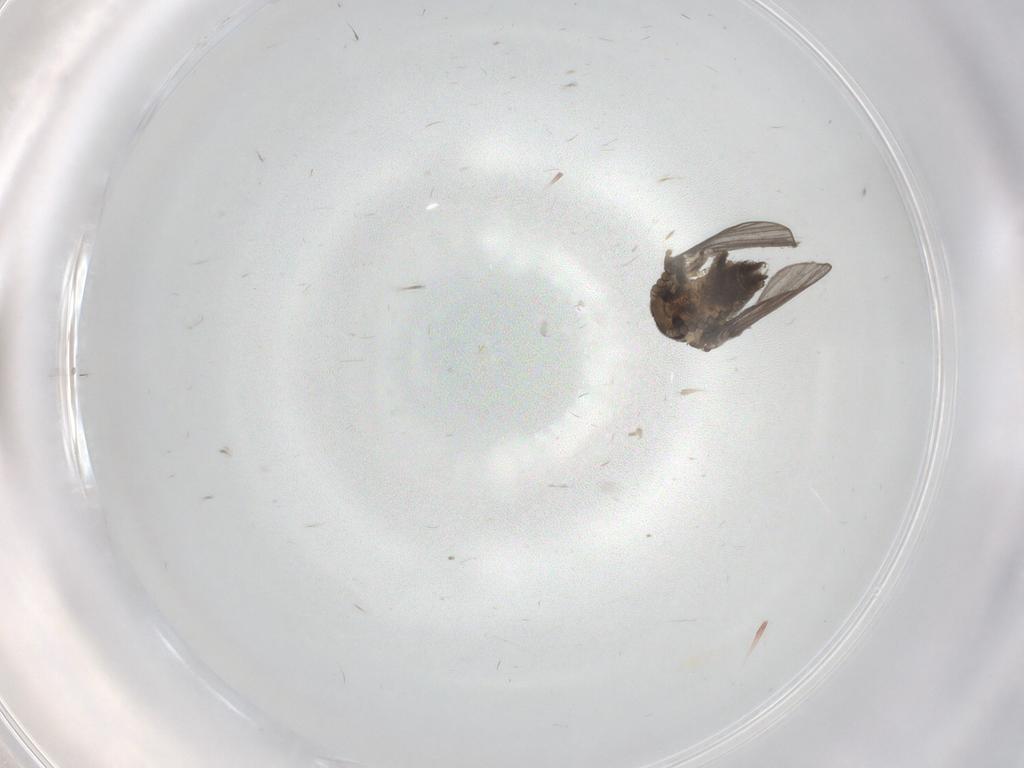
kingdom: Animalia
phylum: Arthropoda
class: Insecta
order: Diptera
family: Psychodidae
